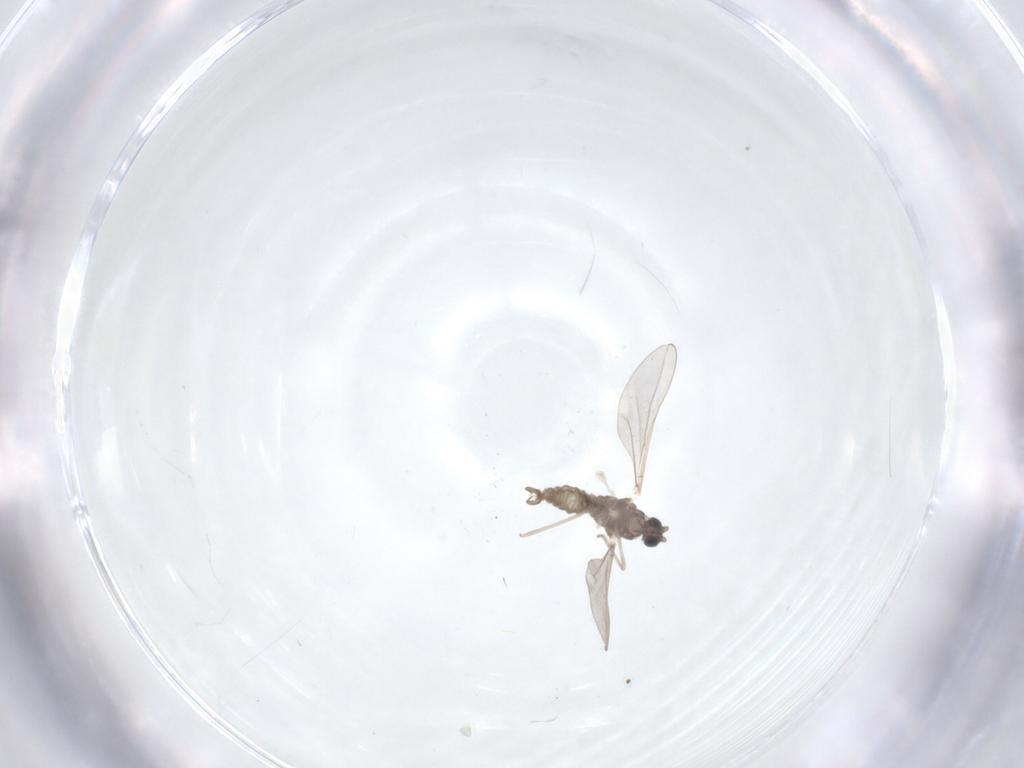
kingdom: Animalia
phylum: Arthropoda
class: Insecta
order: Diptera
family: Cecidomyiidae
